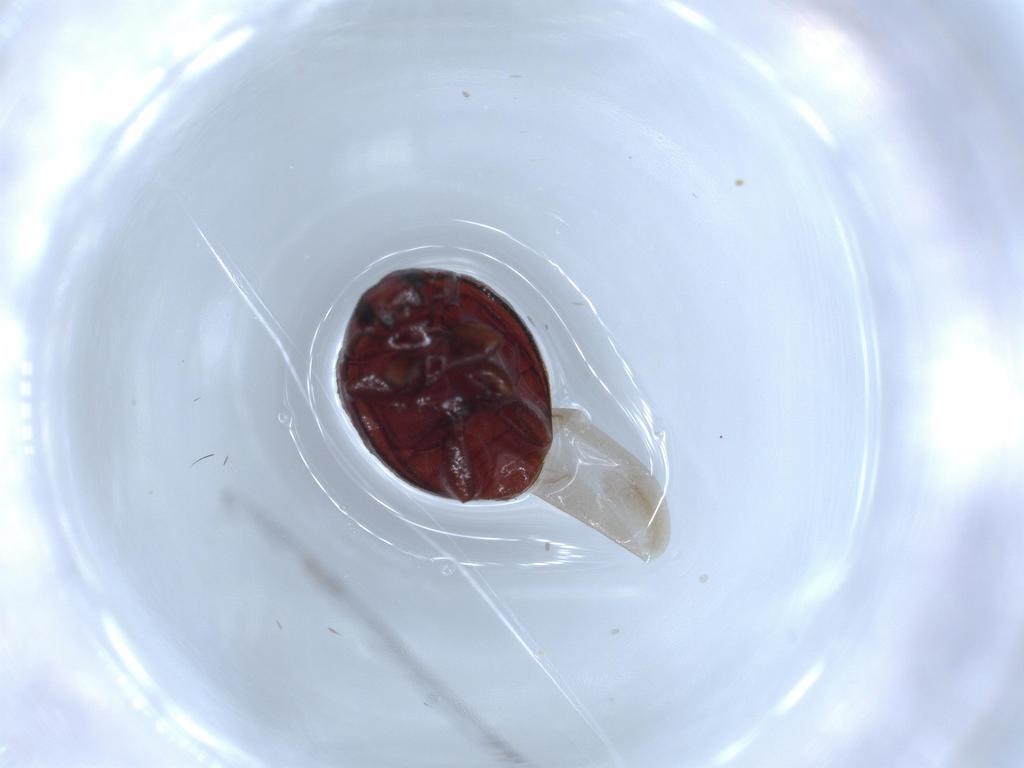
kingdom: Animalia
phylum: Arthropoda
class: Insecta
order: Coleoptera
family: Coccinellidae
